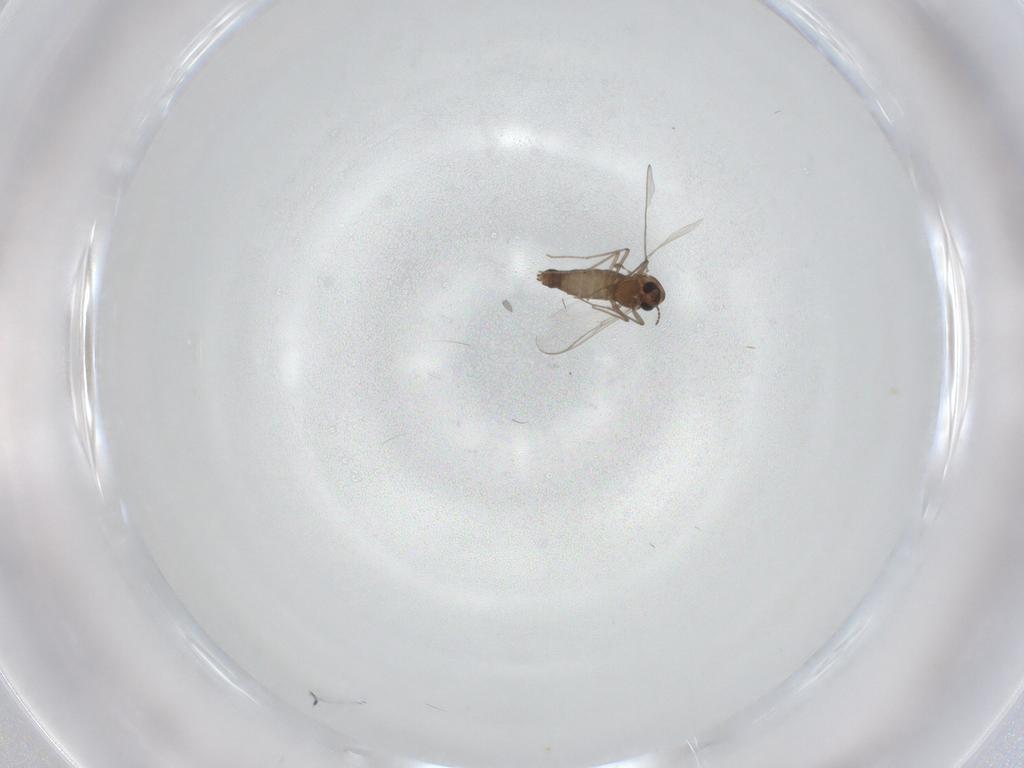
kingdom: Animalia
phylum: Arthropoda
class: Insecta
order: Diptera
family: Chironomidae
